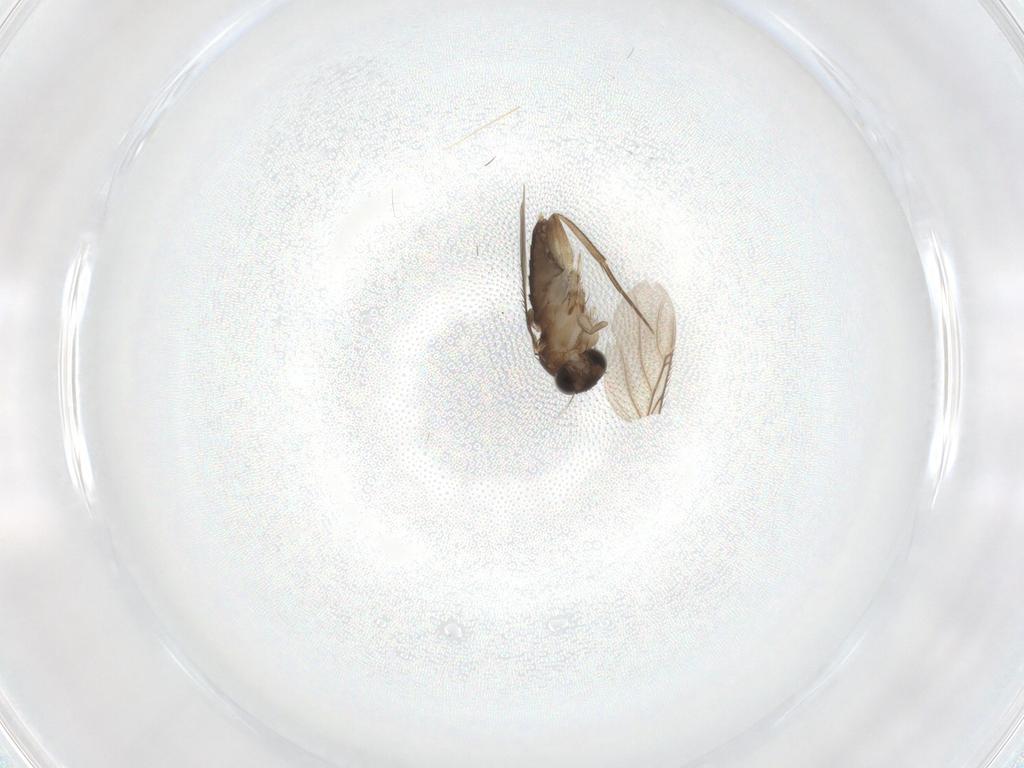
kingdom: Animalia
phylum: Arthropoda
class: Insecta
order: Diptera
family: Phoridae
